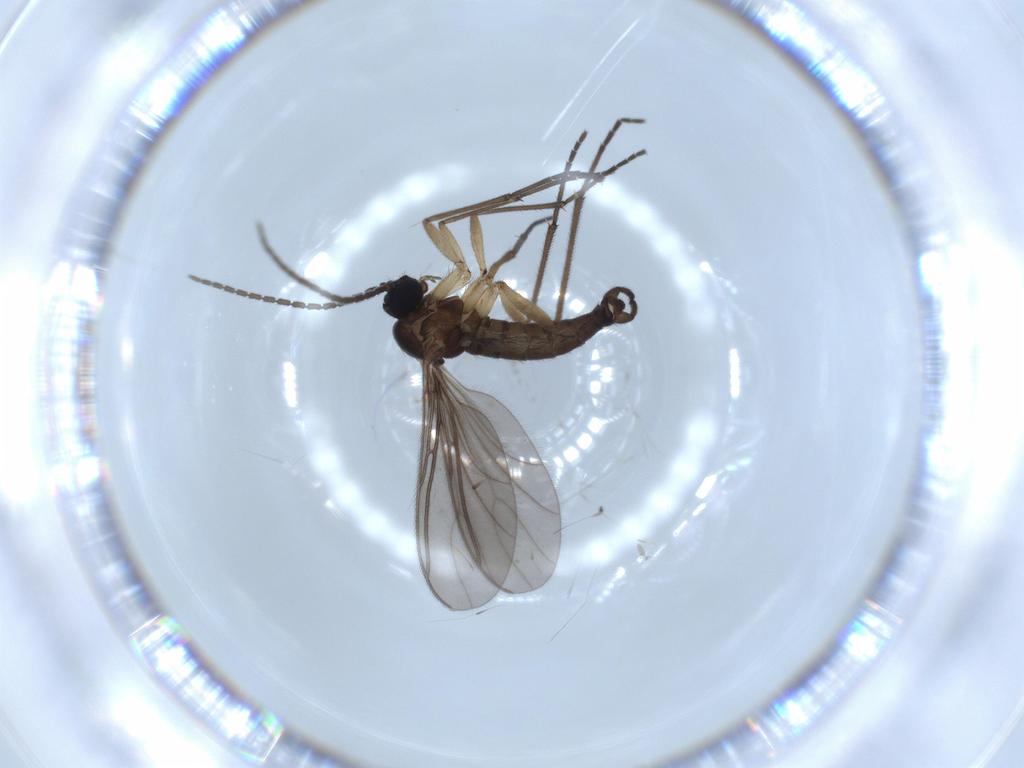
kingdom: Animalia
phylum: Arthropoda
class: Insecta
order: Diptera
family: Sciaridae
